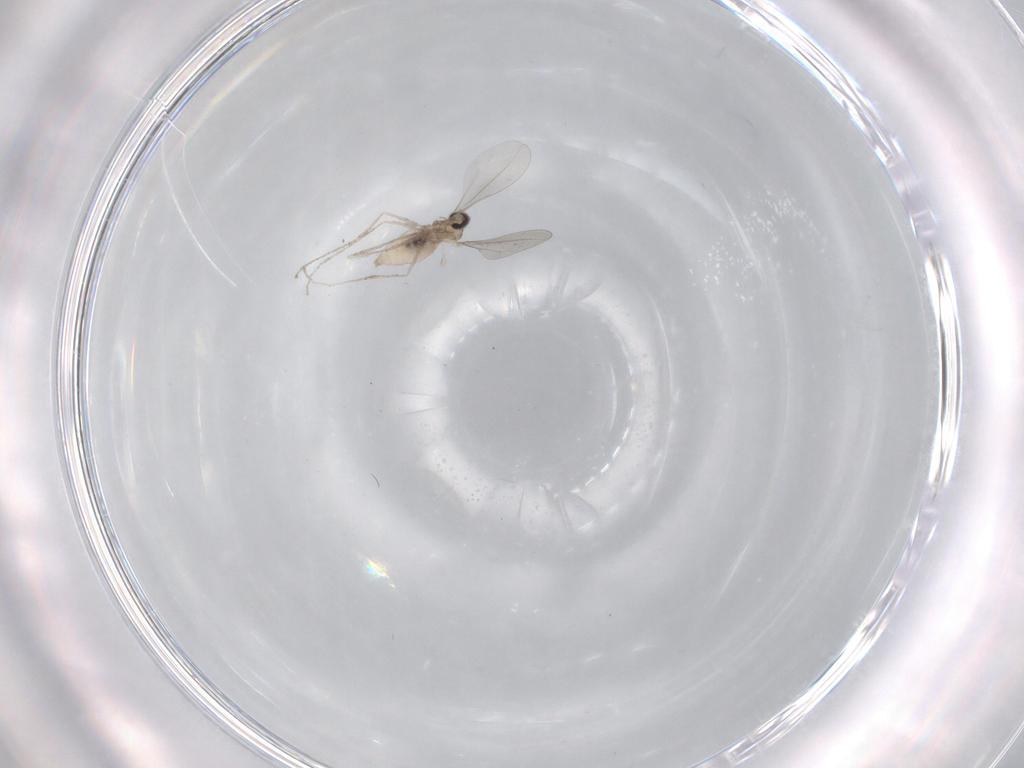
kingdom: Animalia
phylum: Arthropoda
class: Insecta
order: Diptera
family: Cecidomyiidae
